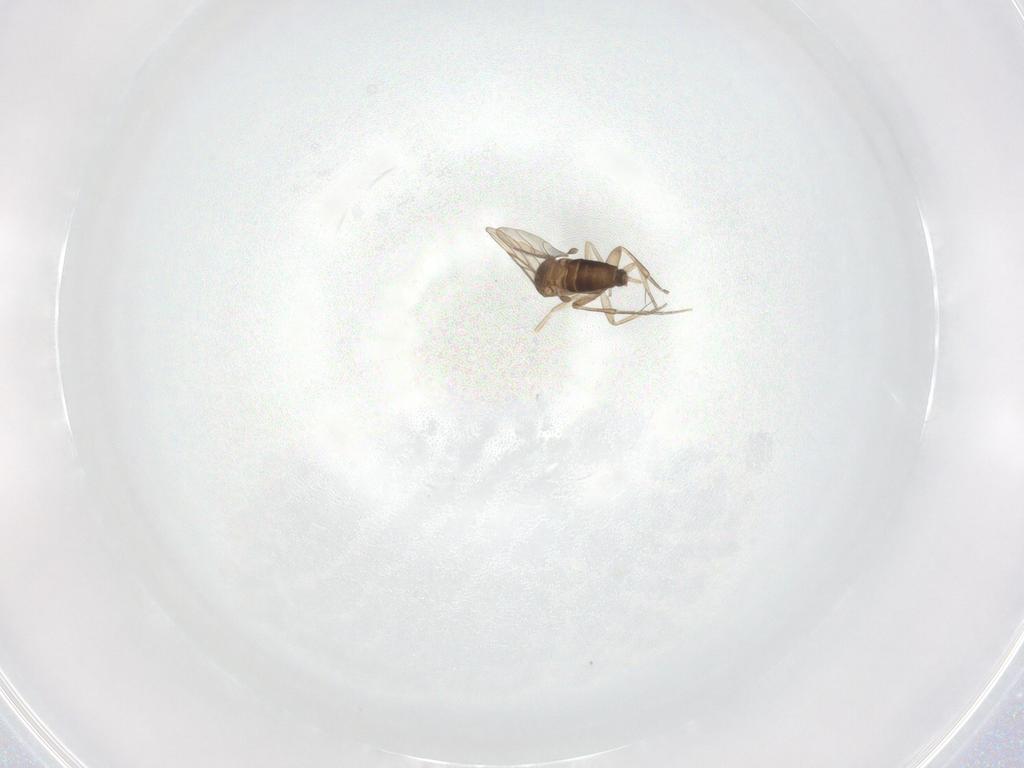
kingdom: Animalia
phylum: Arthropoda
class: Insecta
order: Diptera
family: Phoridae
